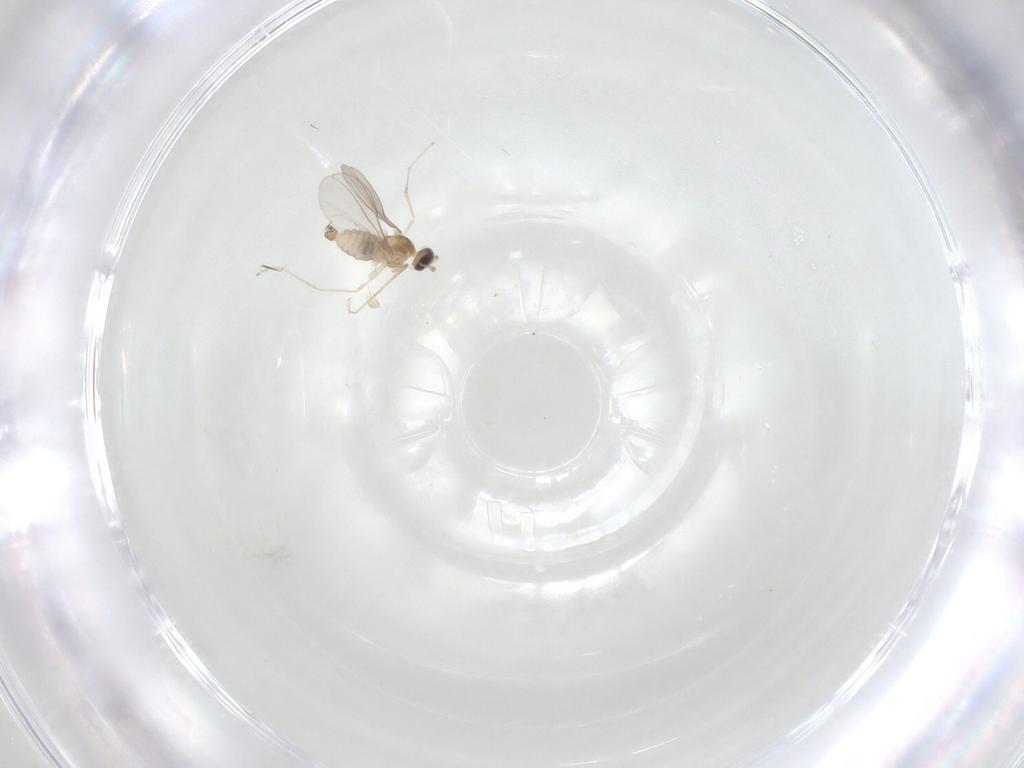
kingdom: Animalia
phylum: Arthropoda
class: Insecta
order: Diptera
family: Cecidomyiidae
